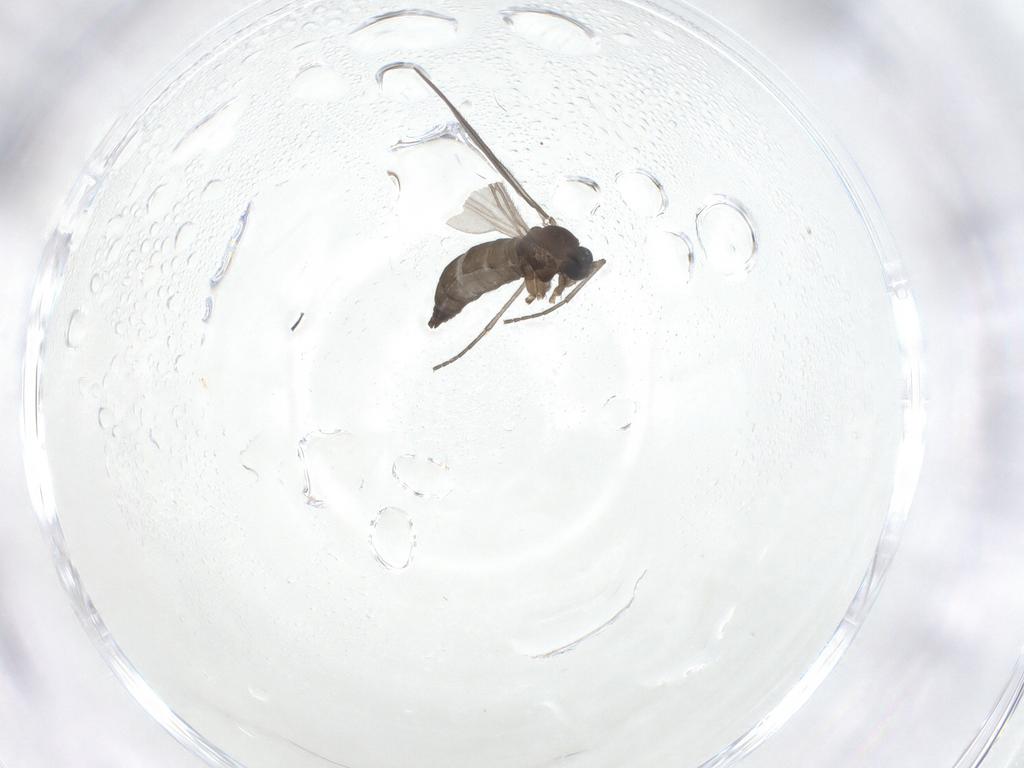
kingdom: Animalia
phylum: Arthropoda
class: Insecta
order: Diptera
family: Sciaridae
